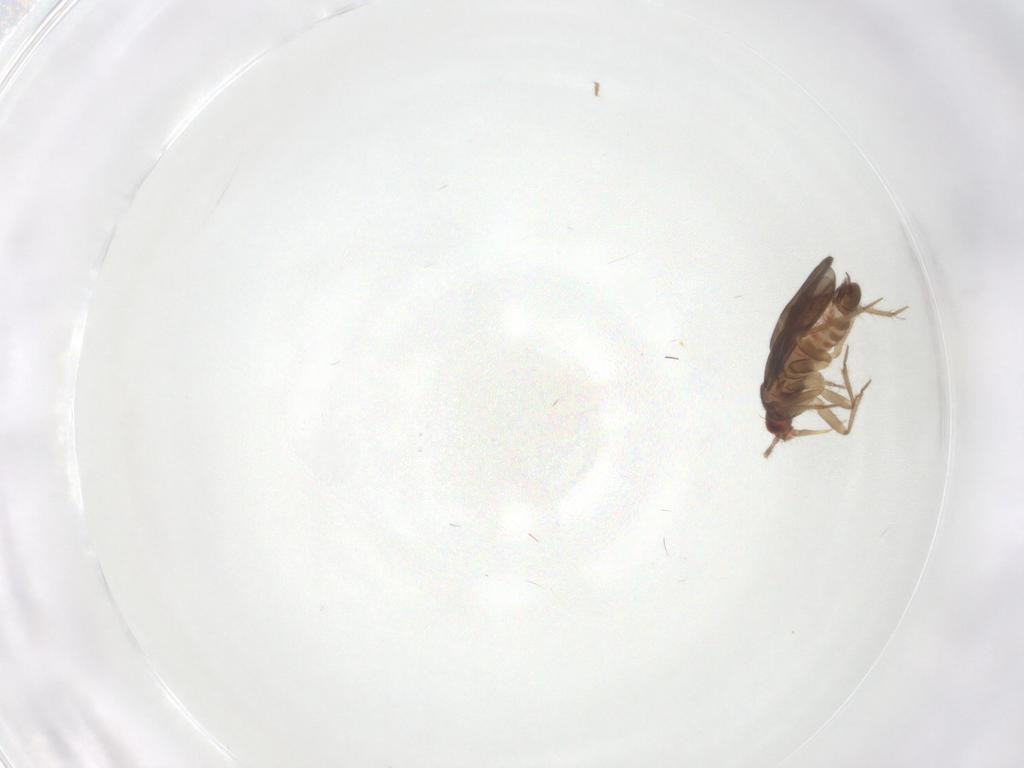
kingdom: Animalia
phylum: Arthropoda
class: Insecta
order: Hemiptera
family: Ceratocombidae
